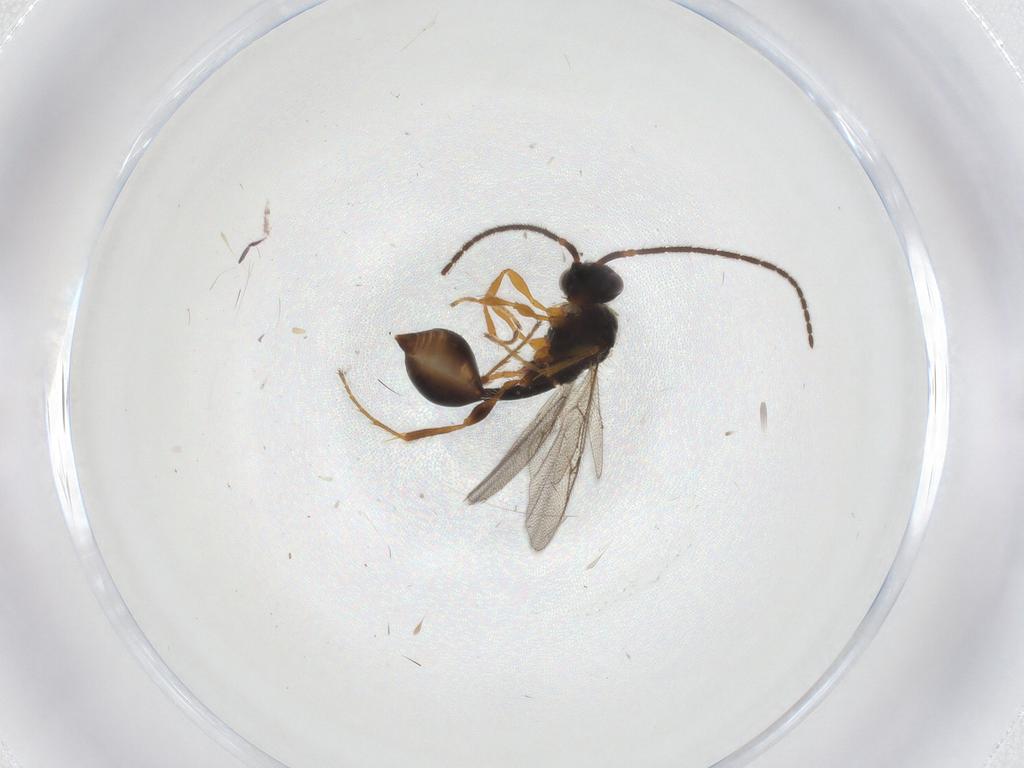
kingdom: Animalia
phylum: Arthropoda
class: Insecta
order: Hymenoptera
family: Diapriidae
